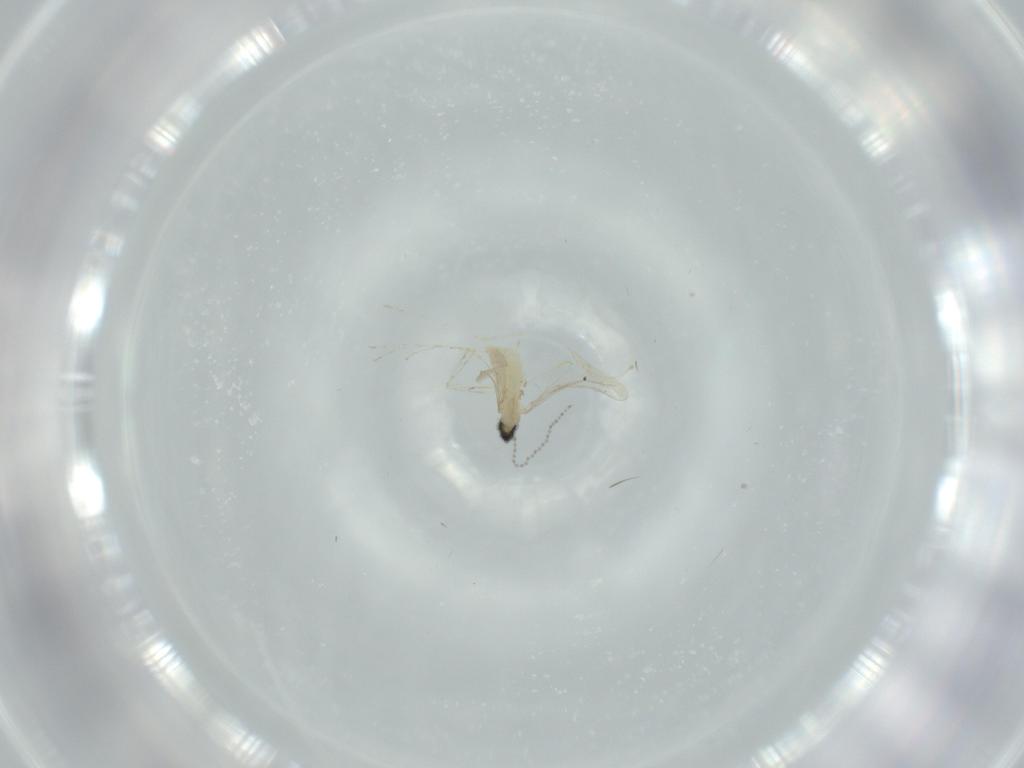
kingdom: Animalia
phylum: Arthropoda
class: Insecta
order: Diptera
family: Cecidomyiidae
